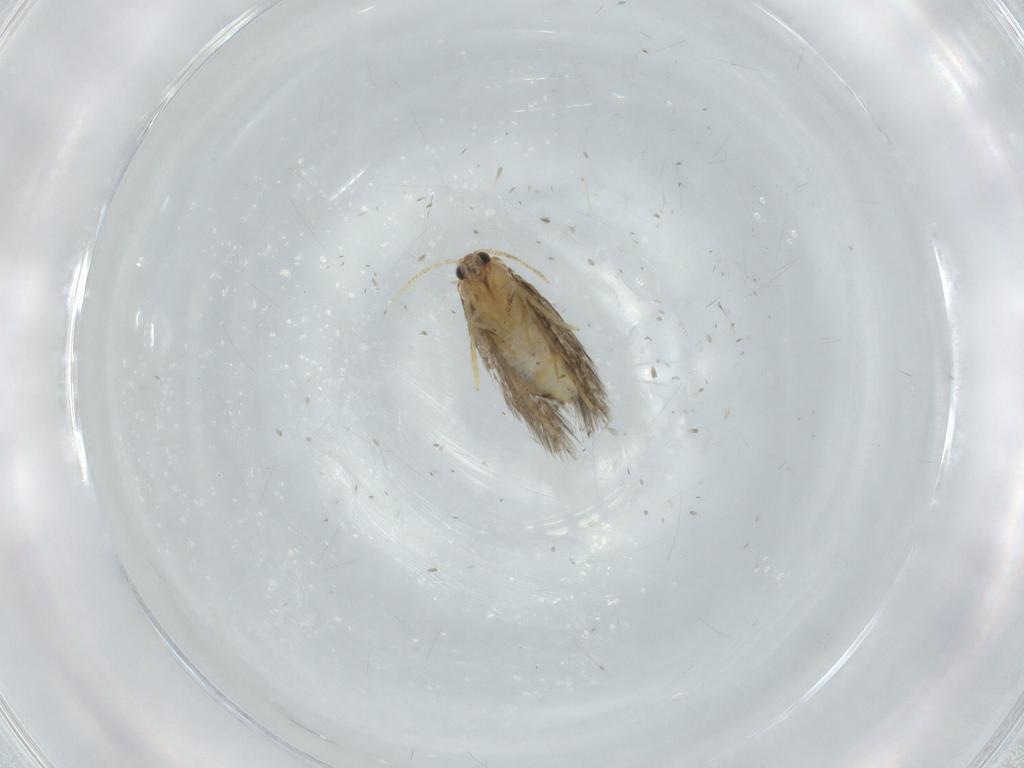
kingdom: Animalia
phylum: Arthropoda
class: Insecta
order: Lepidoptera
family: Copromorphidae
